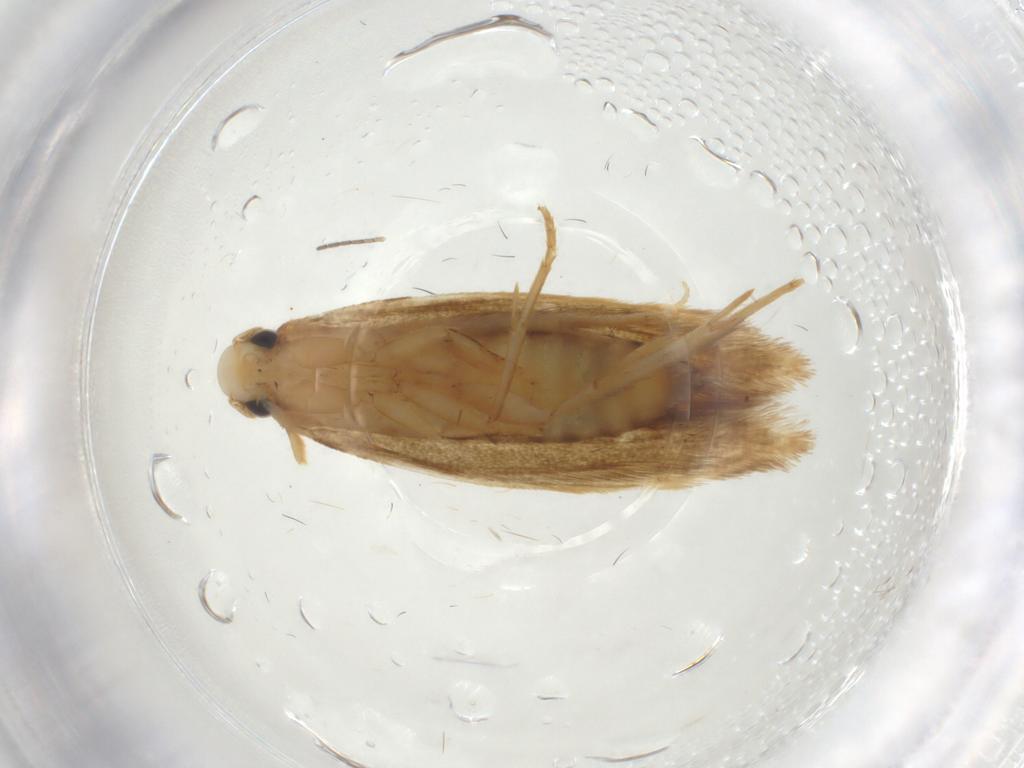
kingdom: Animalia
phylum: Arthropoda
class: Insecta
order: Lepidoptera
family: Tineidae
